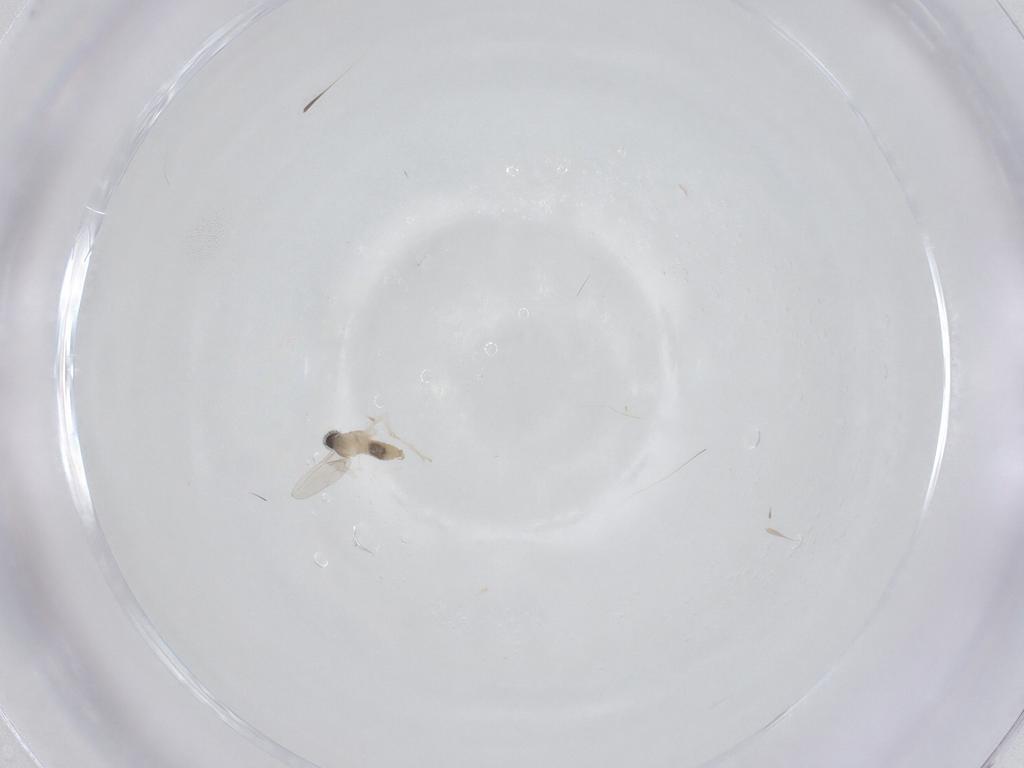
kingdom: Animalia
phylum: Arthropoda
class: Insecta
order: Diptera
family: Cecidomyiidae
